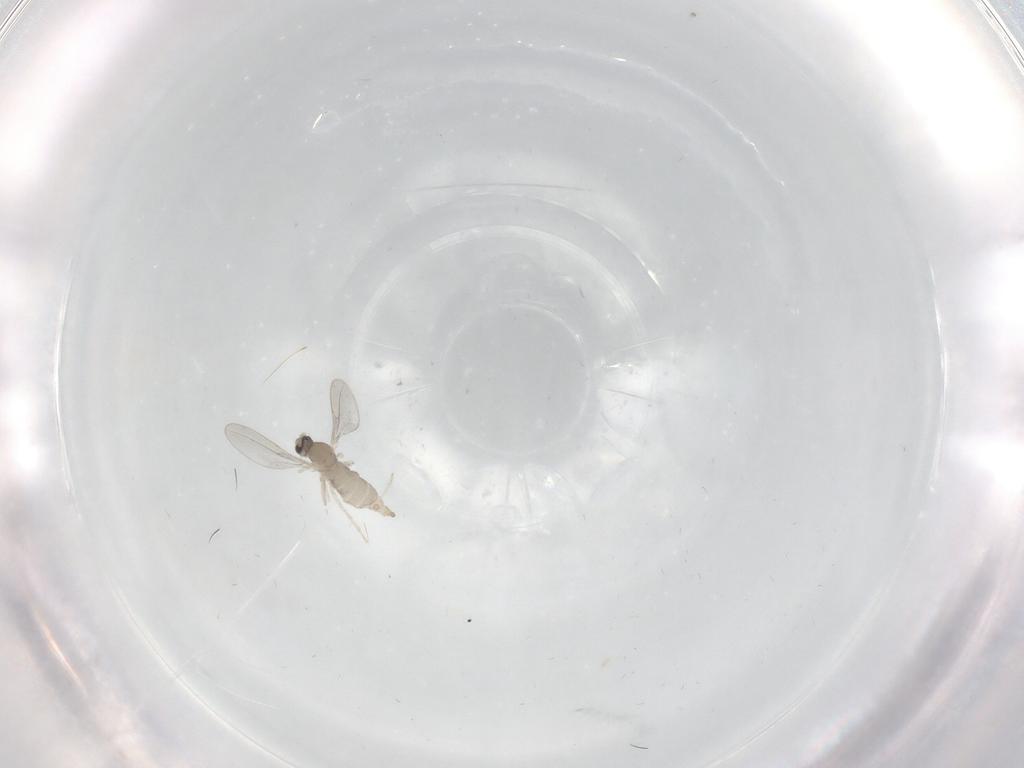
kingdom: Animalia
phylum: Arthropoda
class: Insecta
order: Diptera
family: Cecidomyiidae
